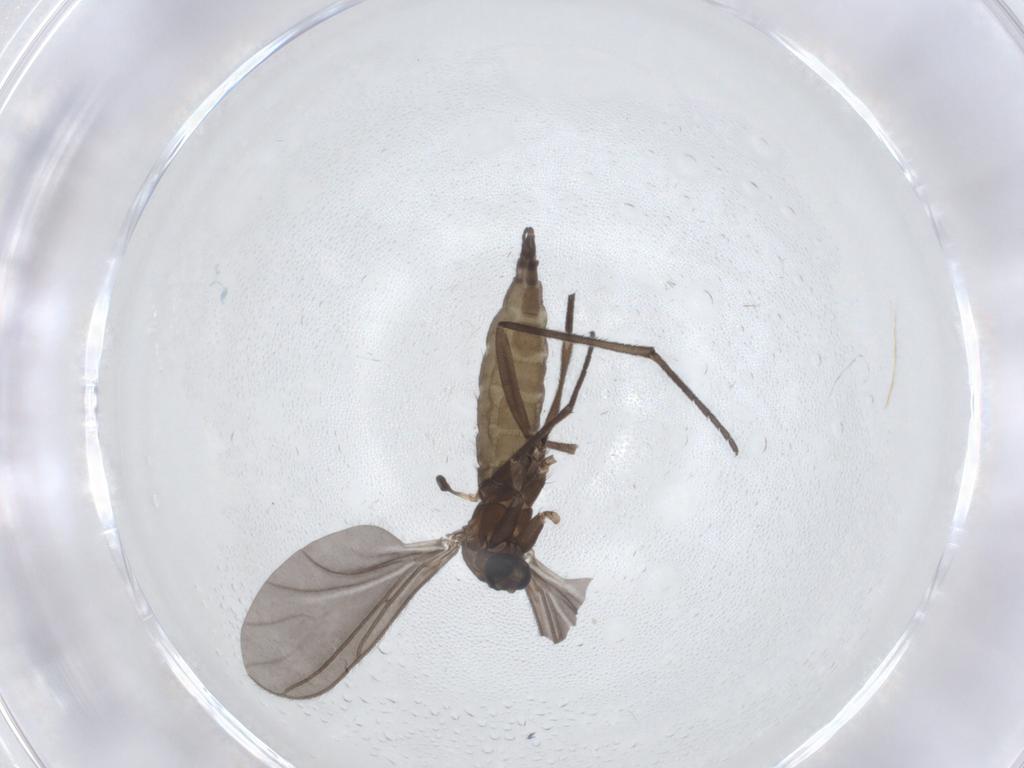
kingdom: Animalia
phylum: Arthropoda
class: Insecta
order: Diptera
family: Sciaridae
